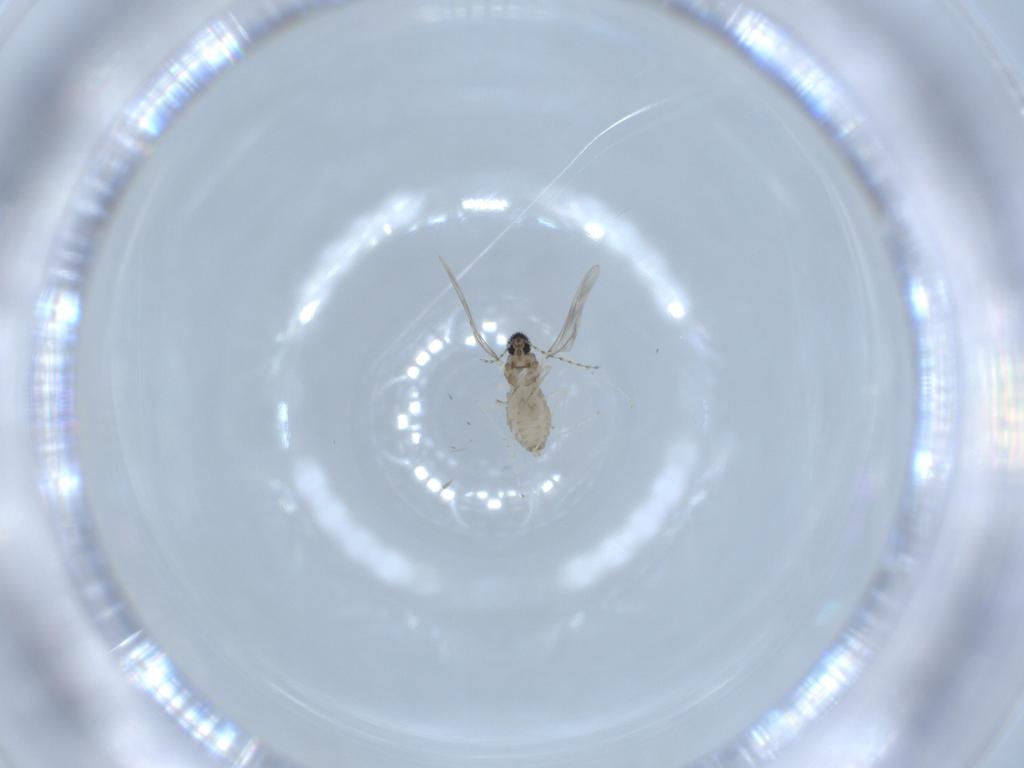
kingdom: Animalia
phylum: Arthropoda
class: Insecta
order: Diptera
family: Cecidomyiidae
